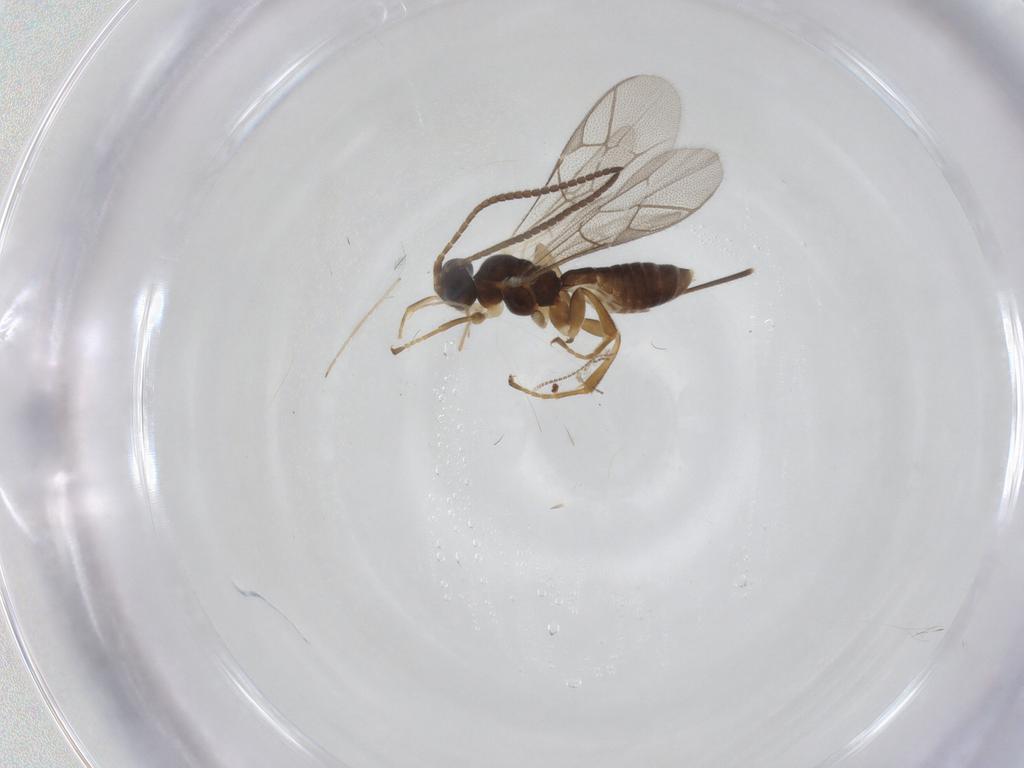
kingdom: Animalia
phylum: Arthropoda
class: Insecta
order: Hymenoptera
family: Ichneumonidae
